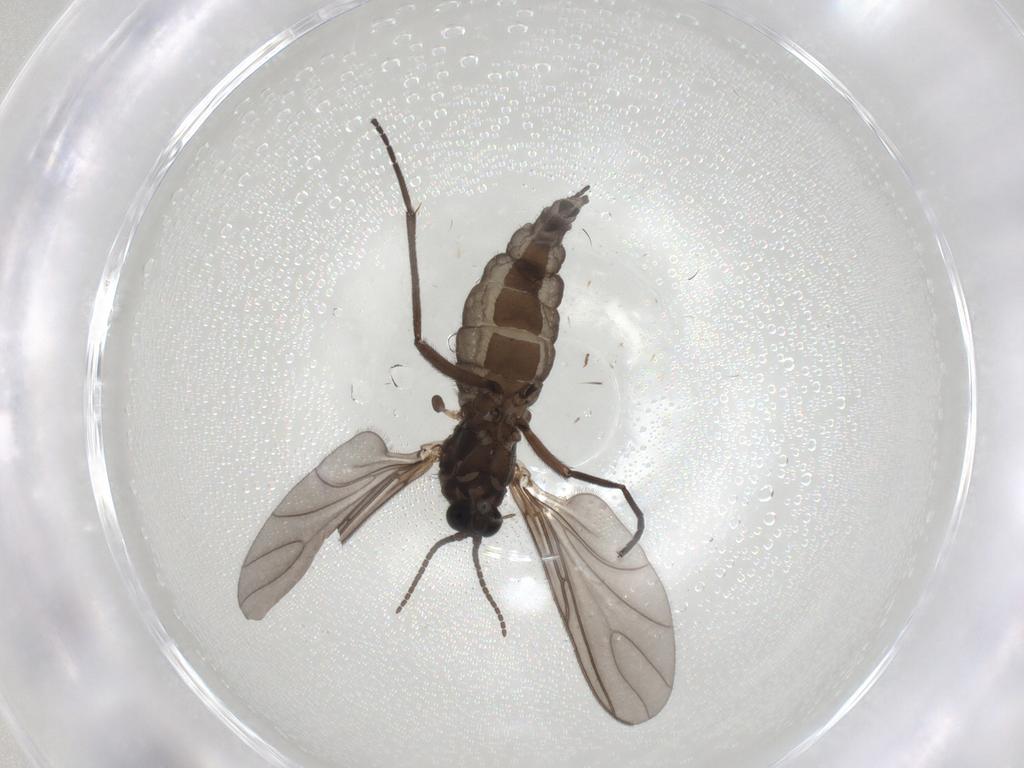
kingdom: Animalia
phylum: Arthropoda
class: Insecta
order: Diptera
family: Sciaridae
